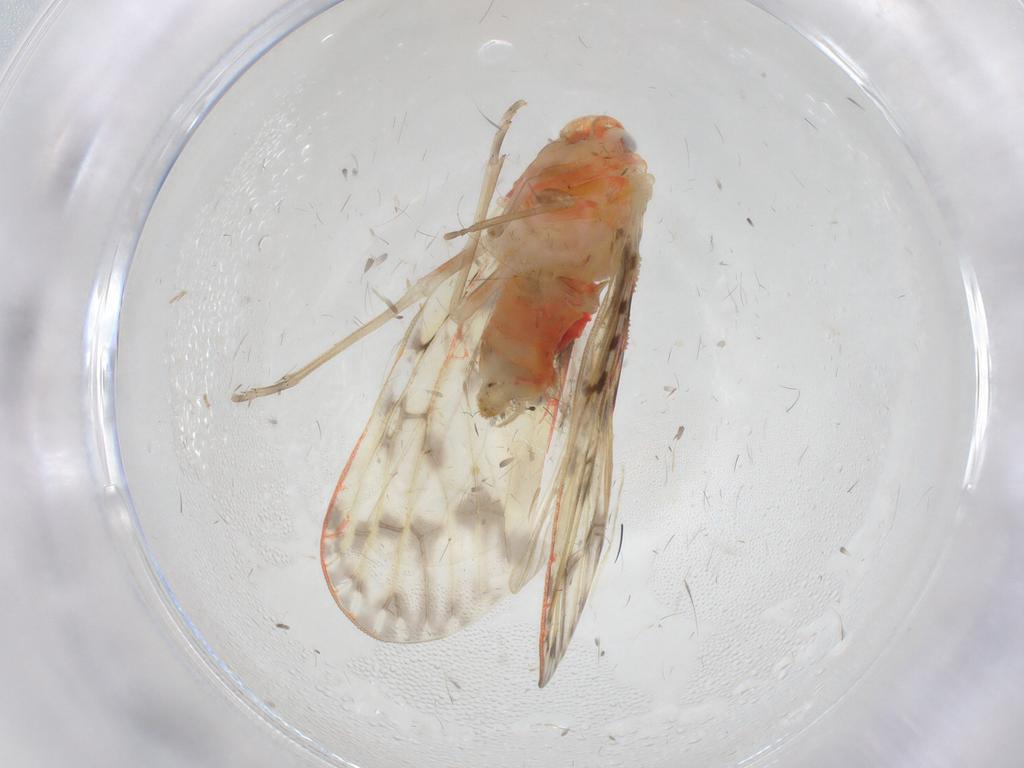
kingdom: Animalia
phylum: Arthropoda
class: Insecta
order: Hemiptera
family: Derbidae
